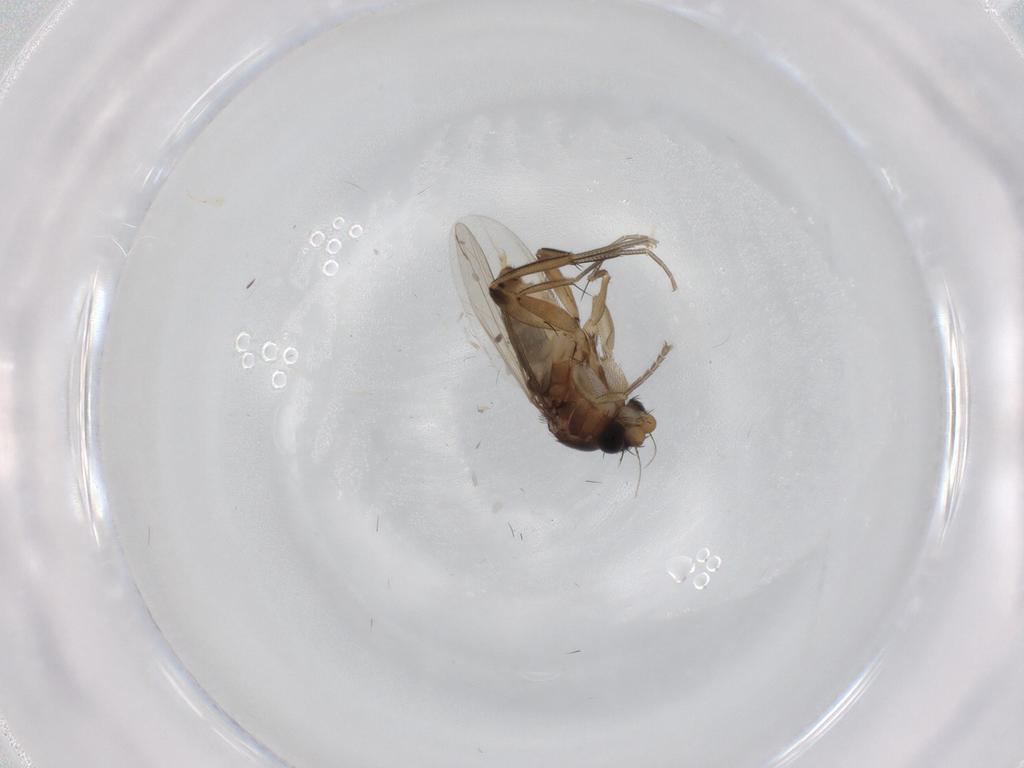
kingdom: Animalia
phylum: Arthropoda
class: Insecta
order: Diptera
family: Phoridae
